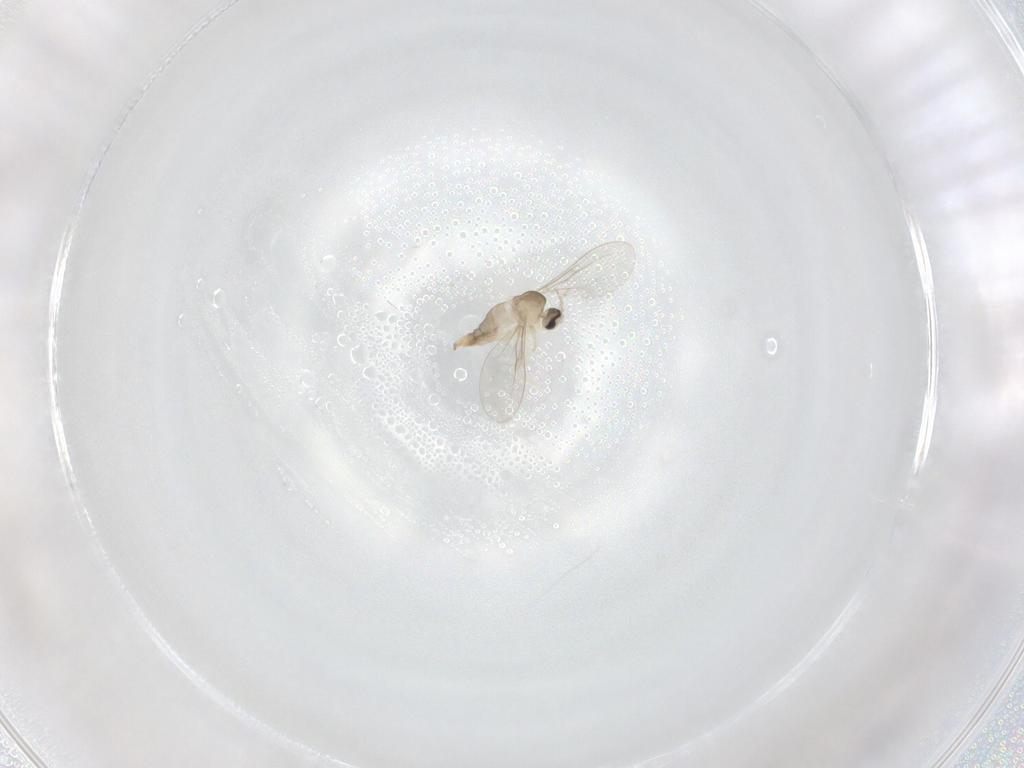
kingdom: Animalia
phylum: Arthropoda
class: Insecta
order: Diptera
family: Cecidomyiidae
